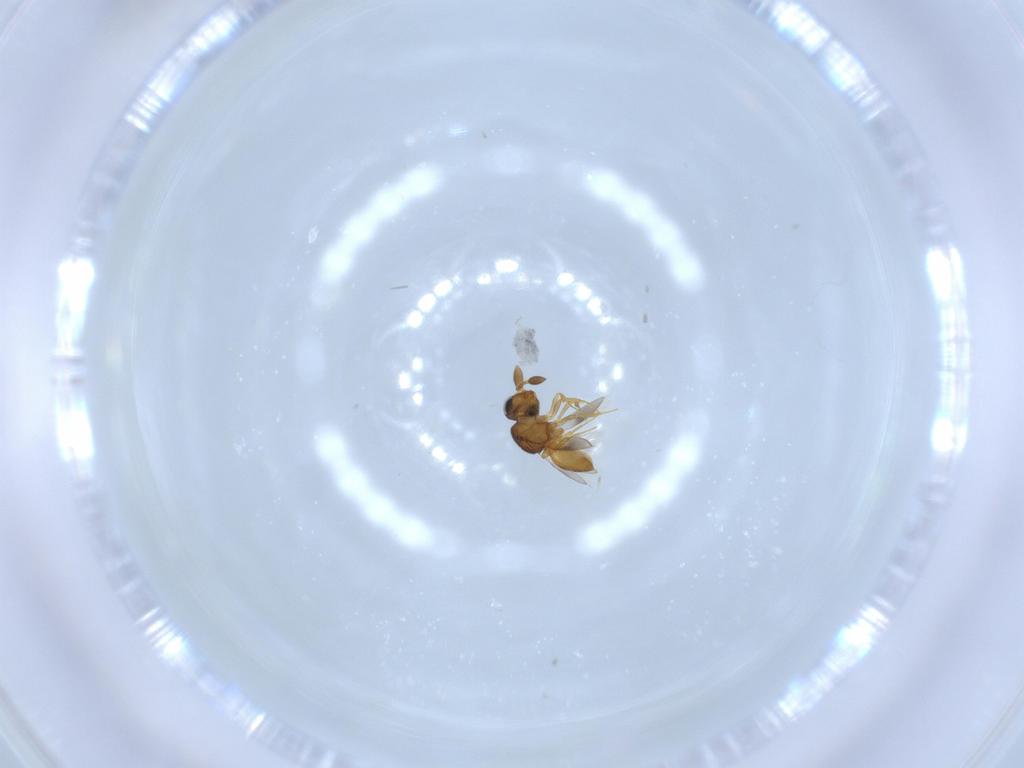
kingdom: Animalia
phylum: Arthropoda
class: Insecta
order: Hymenoptera
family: Scelionidae
